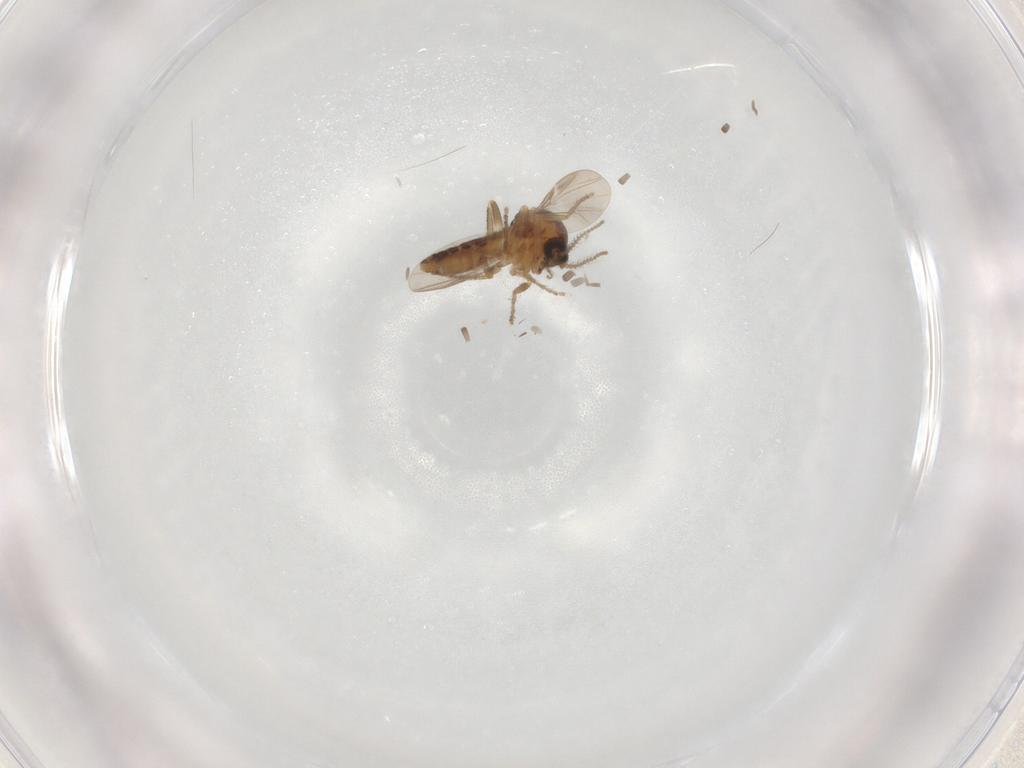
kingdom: Animalia
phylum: Arthropoda
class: Insecta
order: Diptera
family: Ceratopogonidae
